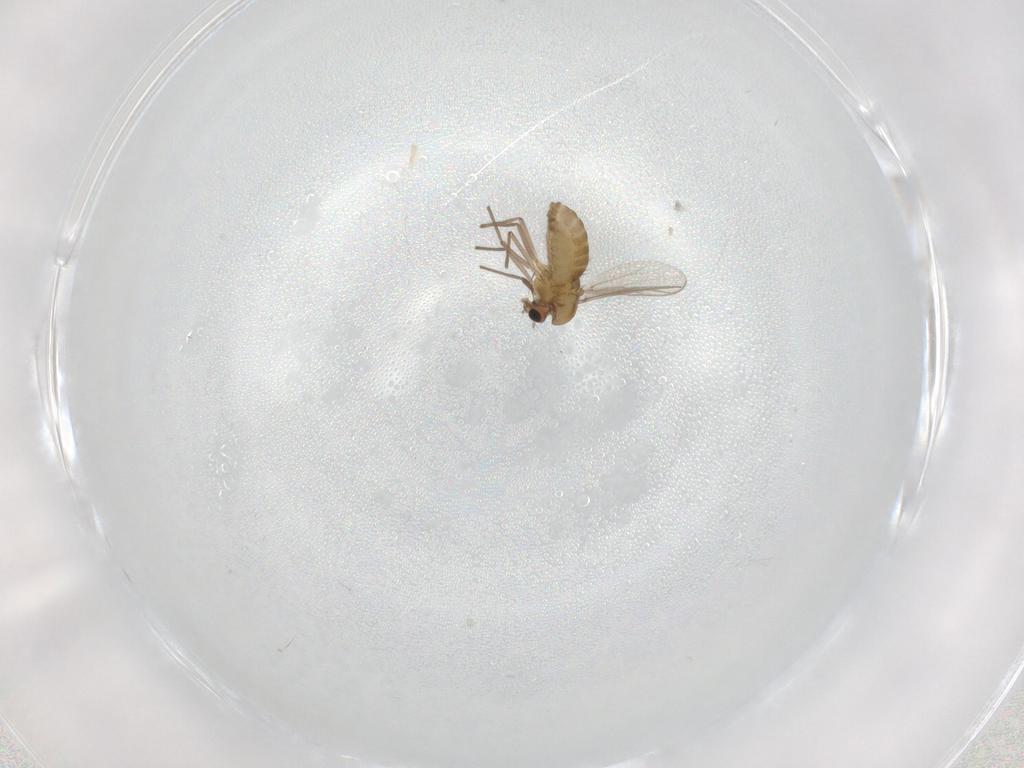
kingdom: Animalia
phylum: Arthropoda
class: Insecta
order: Diptera
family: Chironomidae
